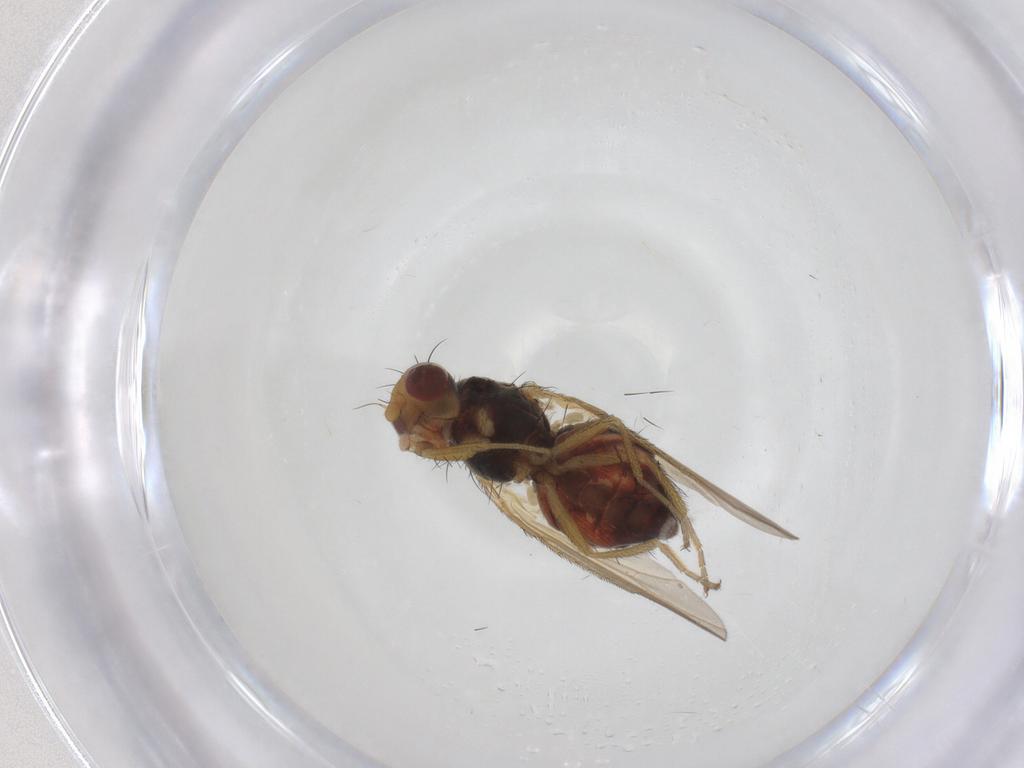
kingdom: Animalia
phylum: Arthropoda
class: Insecta
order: Diptera
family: Heleomyzidae
